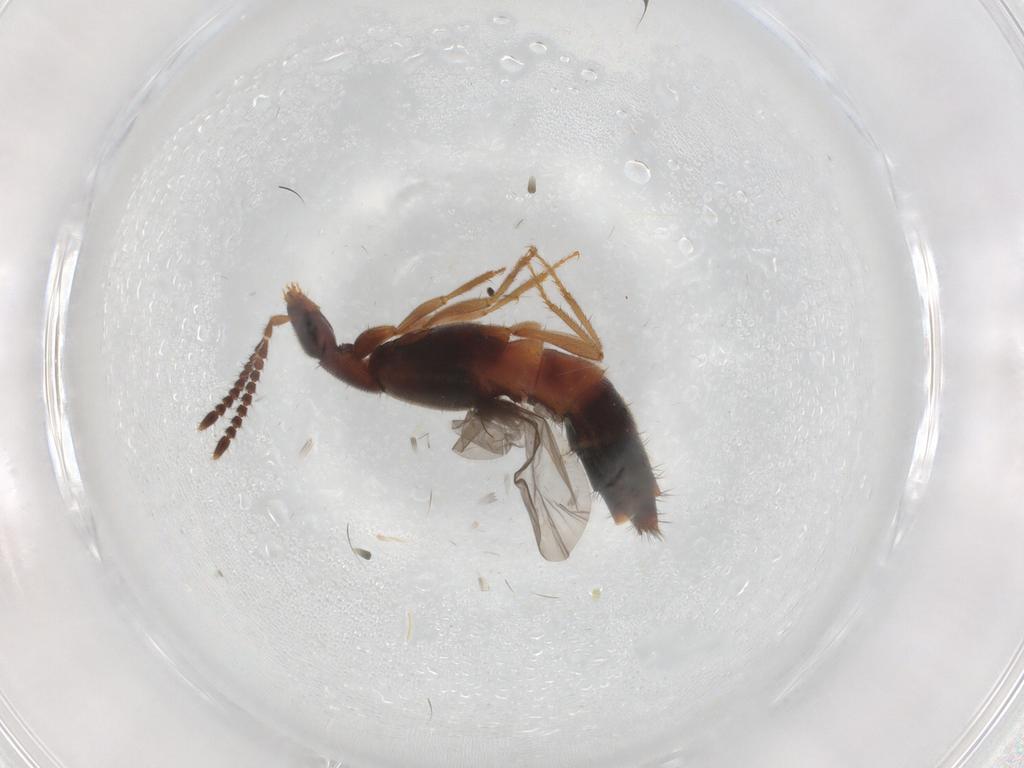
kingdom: Animalia
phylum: Arthropoda
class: Insecta
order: Coleoptera
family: Staphylinidae
